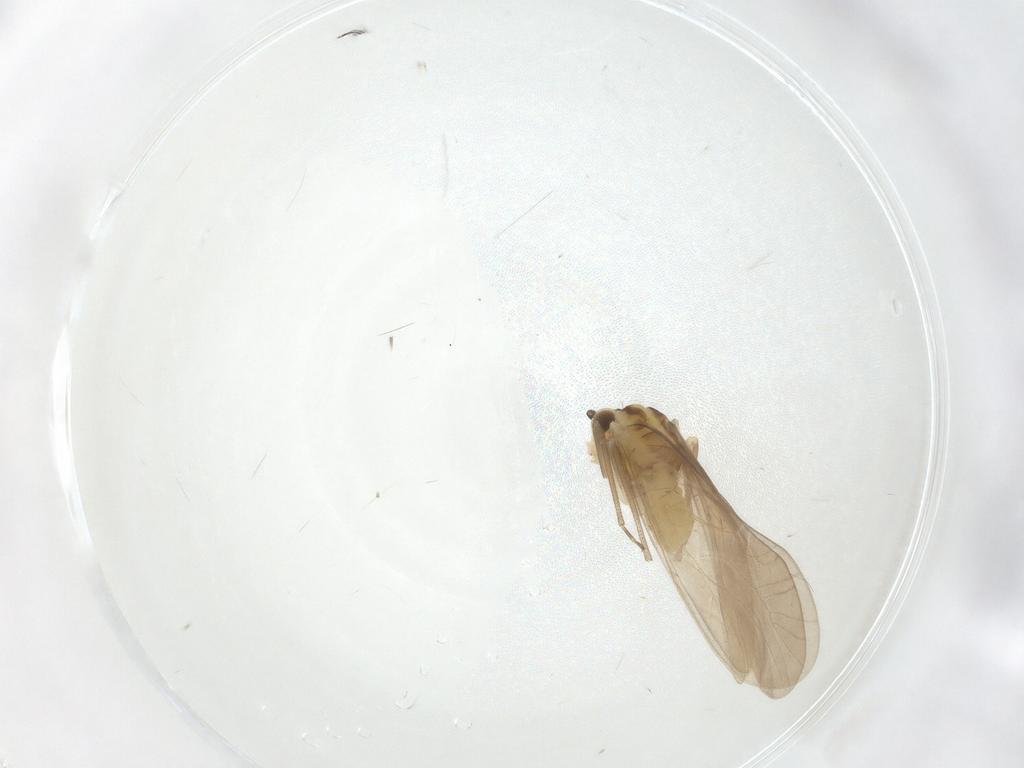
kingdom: Animalia
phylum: Arthropoda
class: Insecta
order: Psocodea
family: Caeciliusidae
